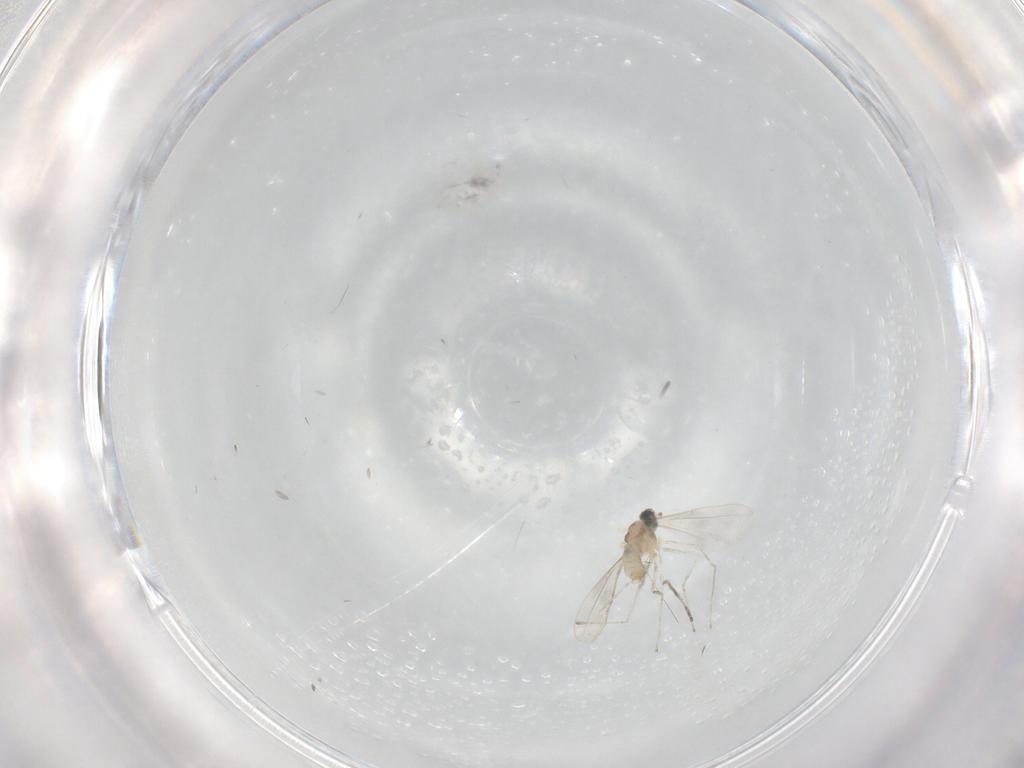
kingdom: Animalia
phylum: Arthropoda
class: Insecta
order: Diptera
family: Cecidomyiidae
